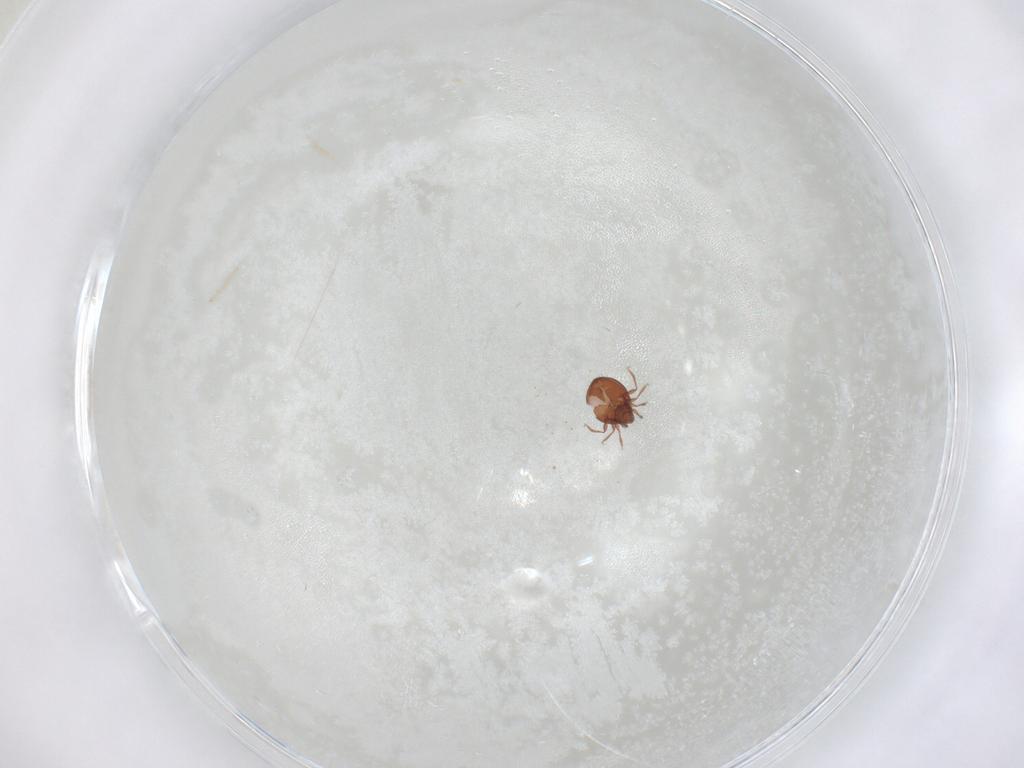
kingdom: Animalia
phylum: Arthropoda
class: Arachnida
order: Sarcoptiformes
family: Oribatulidae
